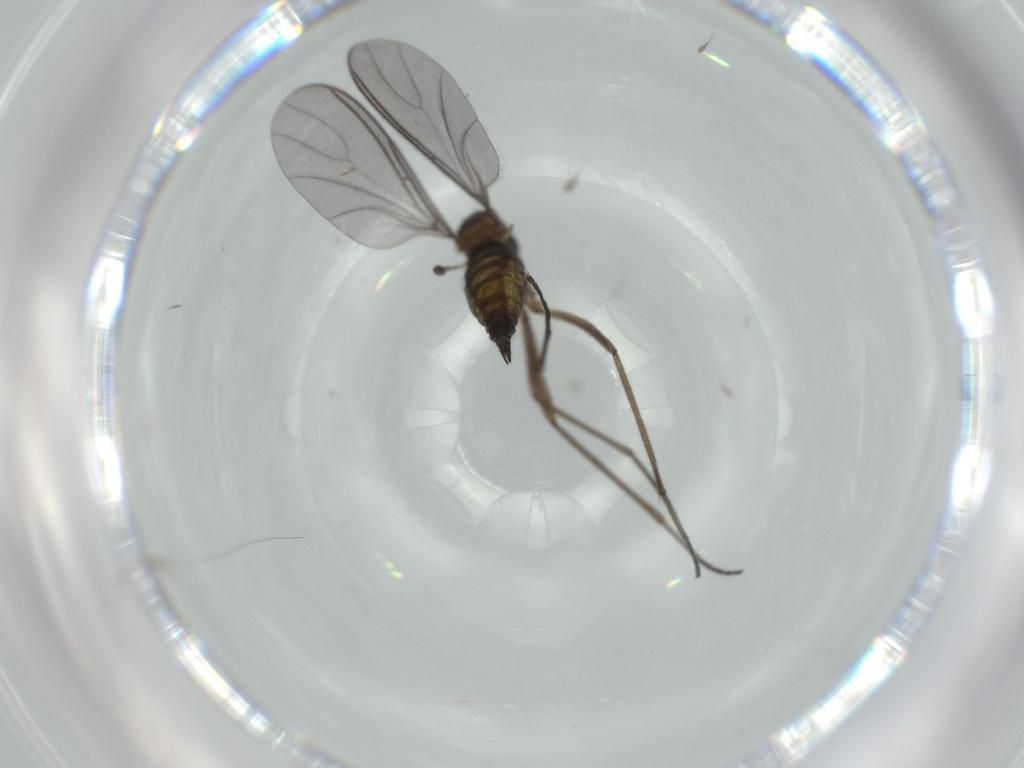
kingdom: Animalia
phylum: Arthropoda
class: Insecta
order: Diptera
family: Sciaridae
